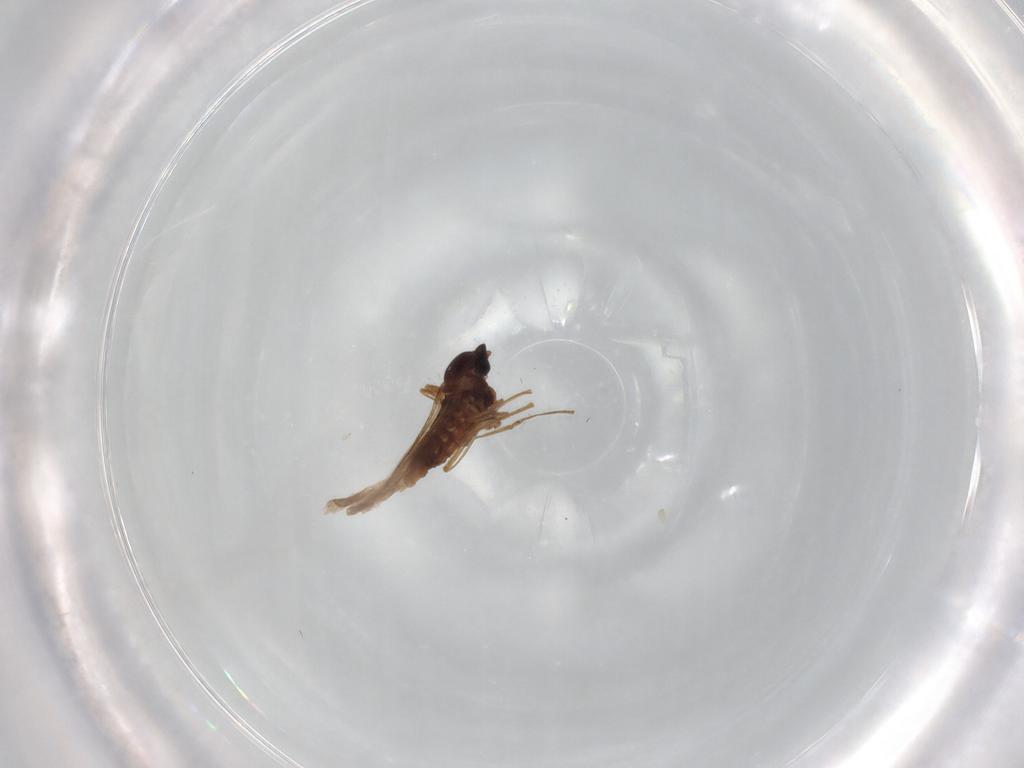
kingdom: Animalia
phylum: Arthropoda
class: Insecta
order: Diptera
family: Cecidomyiidae
